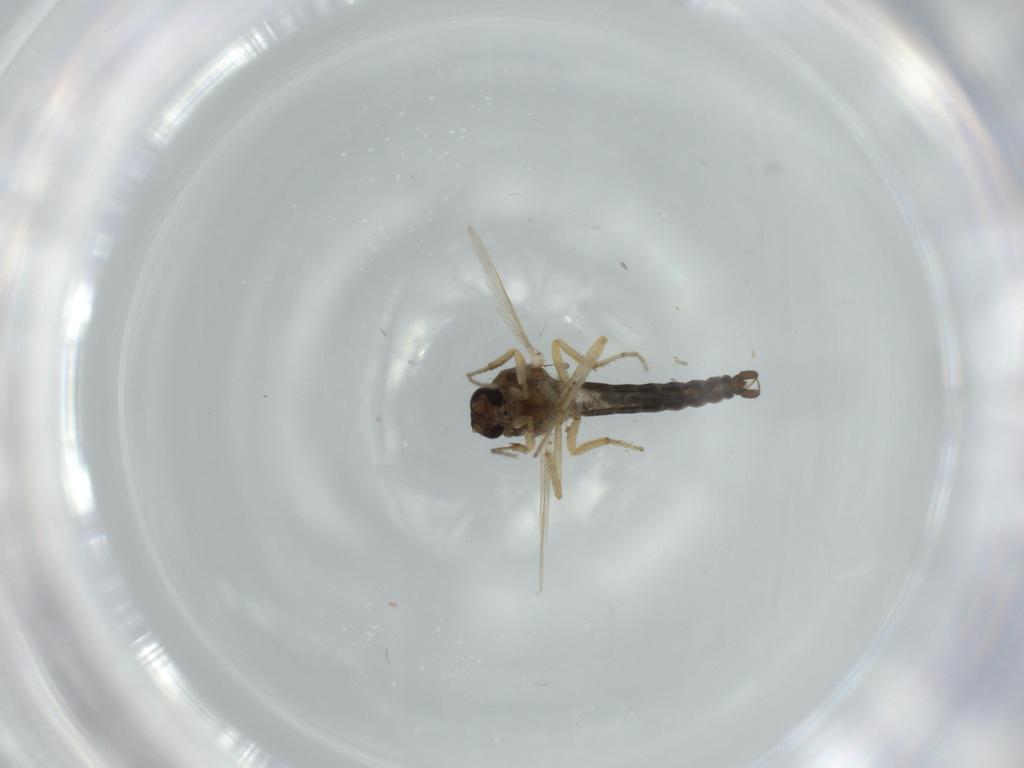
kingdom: Animalia
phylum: Arthropoda
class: Insecta
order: Diptera
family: Ceratopogonidae
